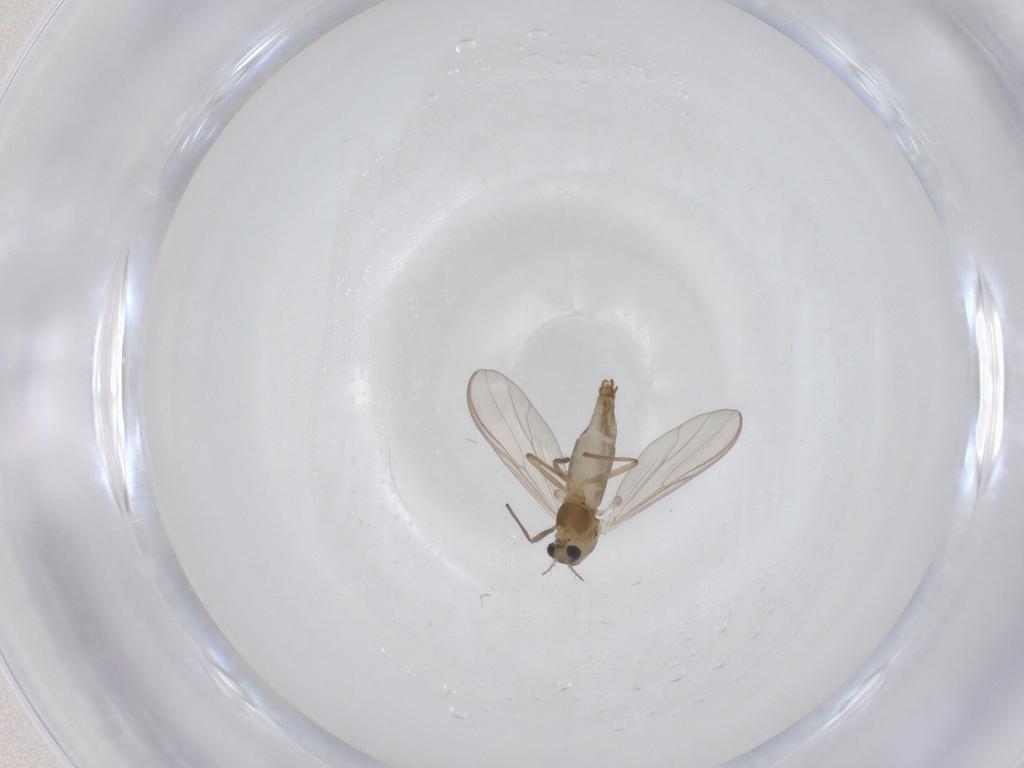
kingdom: Animalia
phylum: Arthropoda
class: Insecta
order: Diptera
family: Chironomidae
